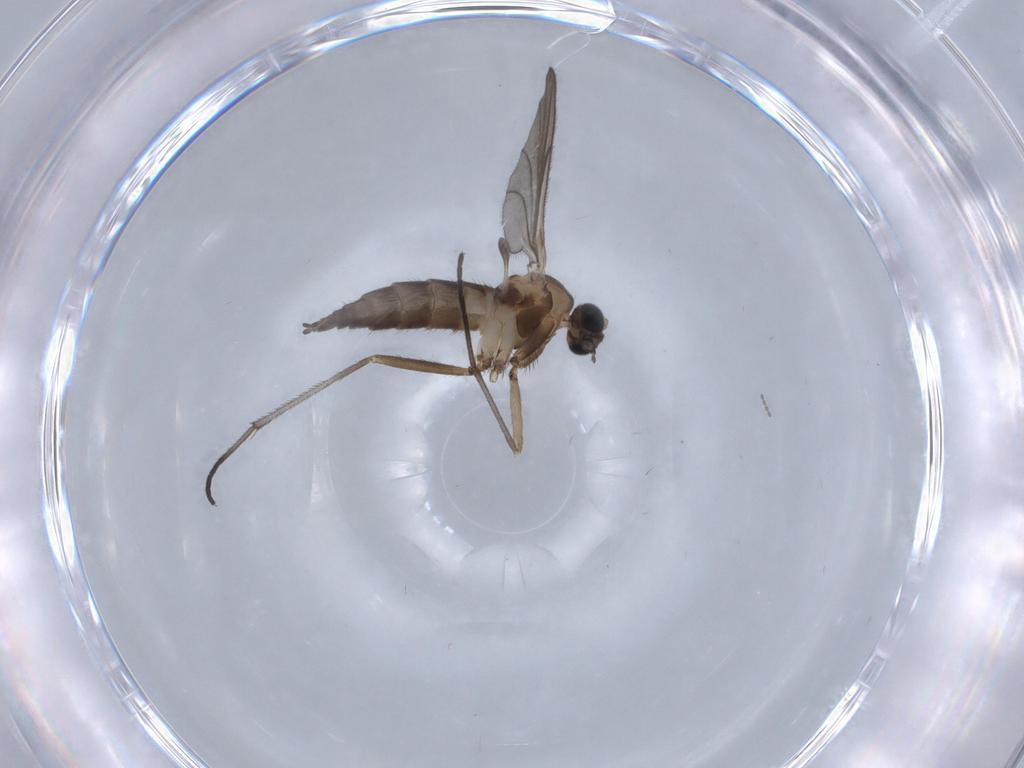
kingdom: Animalia
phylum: Arthropoda
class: Insecta
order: Diptera
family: Sciaridae
